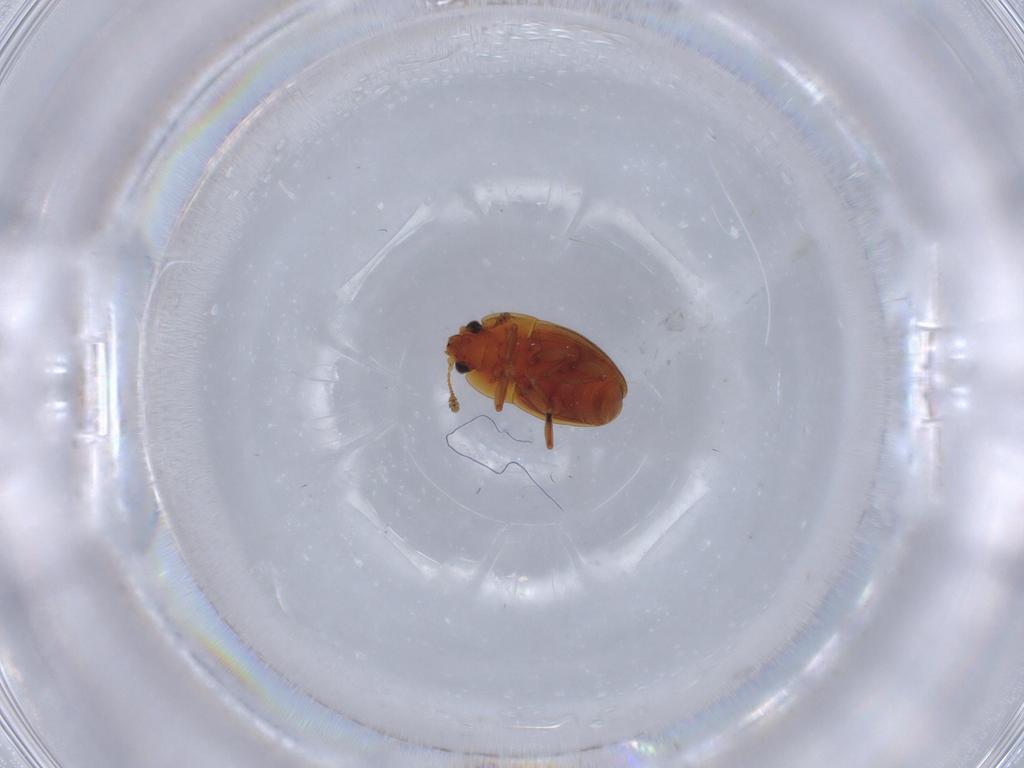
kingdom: Animalia
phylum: Arthropoda
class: Insecta
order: Coleoptera
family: Nitidulidae
